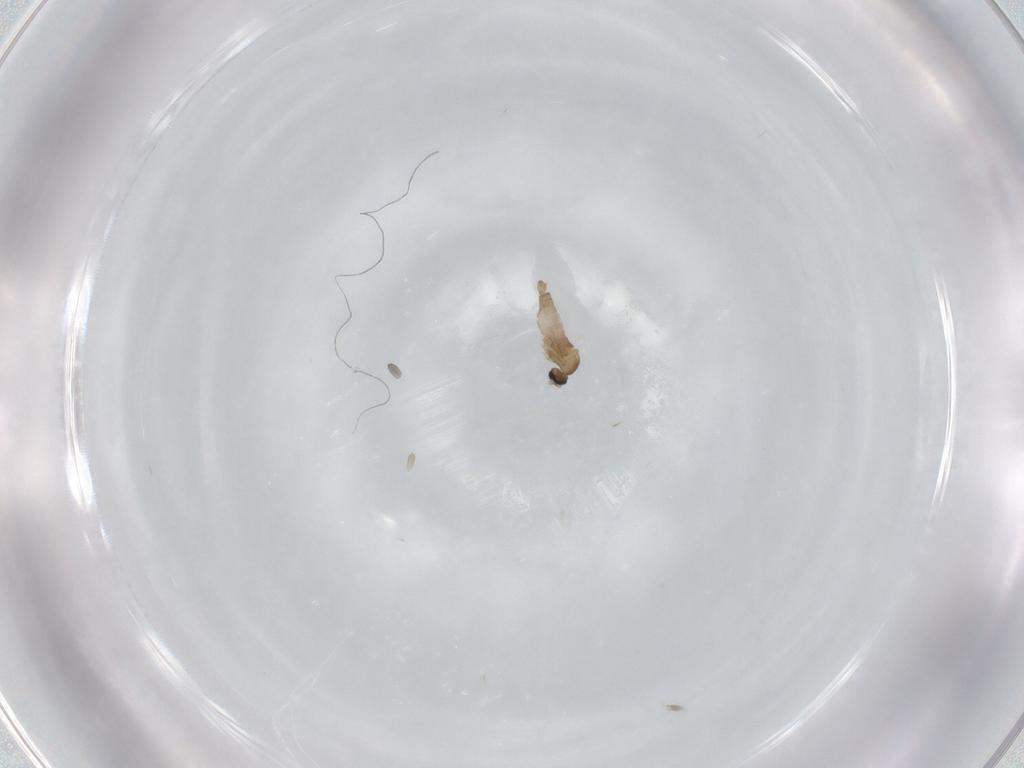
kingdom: Animalia
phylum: Arthropoda
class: Insecta
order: Diptera
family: Cecidomyiidae
